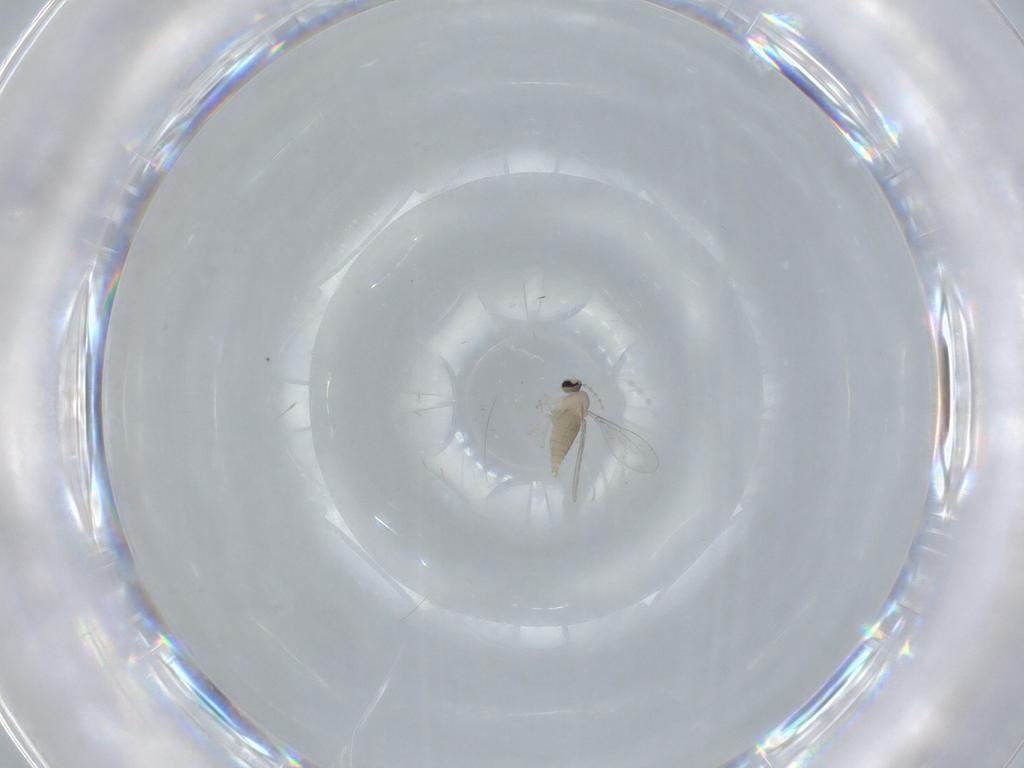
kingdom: Animalia
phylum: Arthropoda
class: Insecta
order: Diptera
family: Cecidomyiidae
